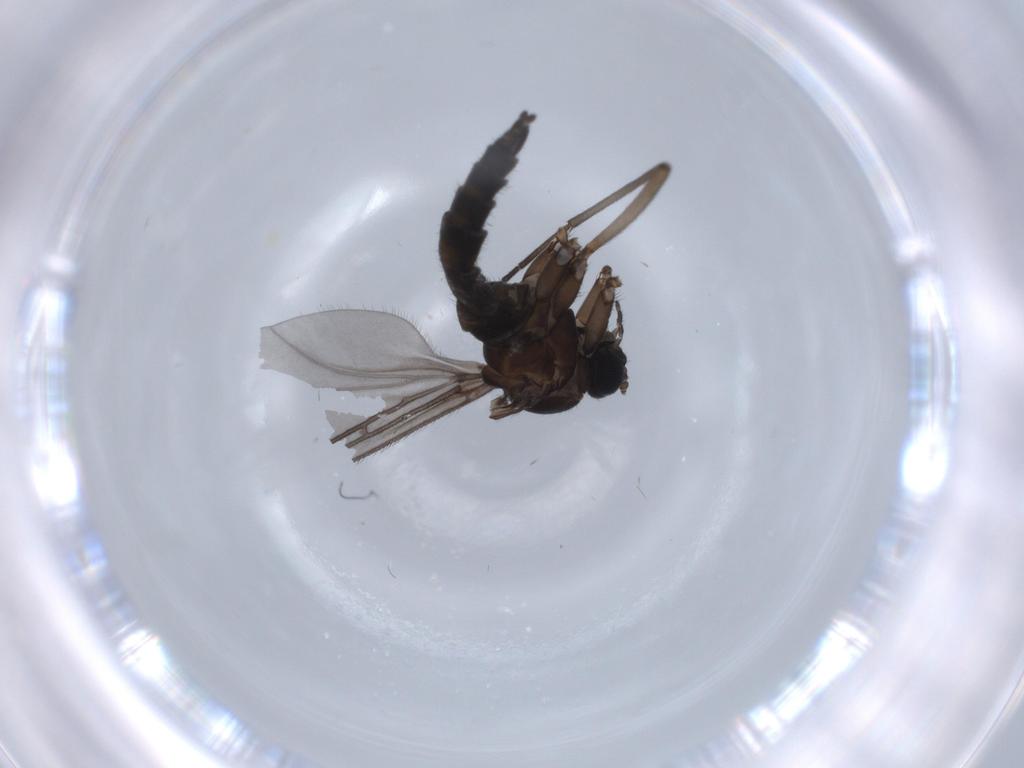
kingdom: Animalia
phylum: Arthropoda
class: Insecta
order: Diptera
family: Sciaridae
